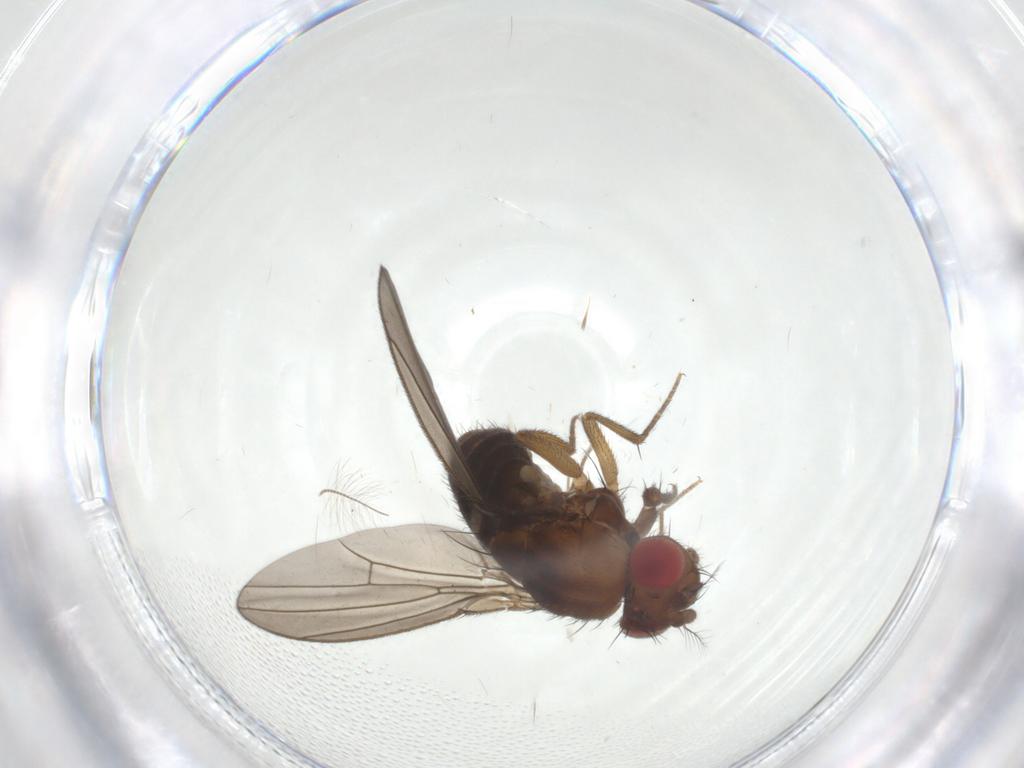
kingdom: Animalia
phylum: Arthropoda
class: Insecta
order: Diptera
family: Drosophilidae
